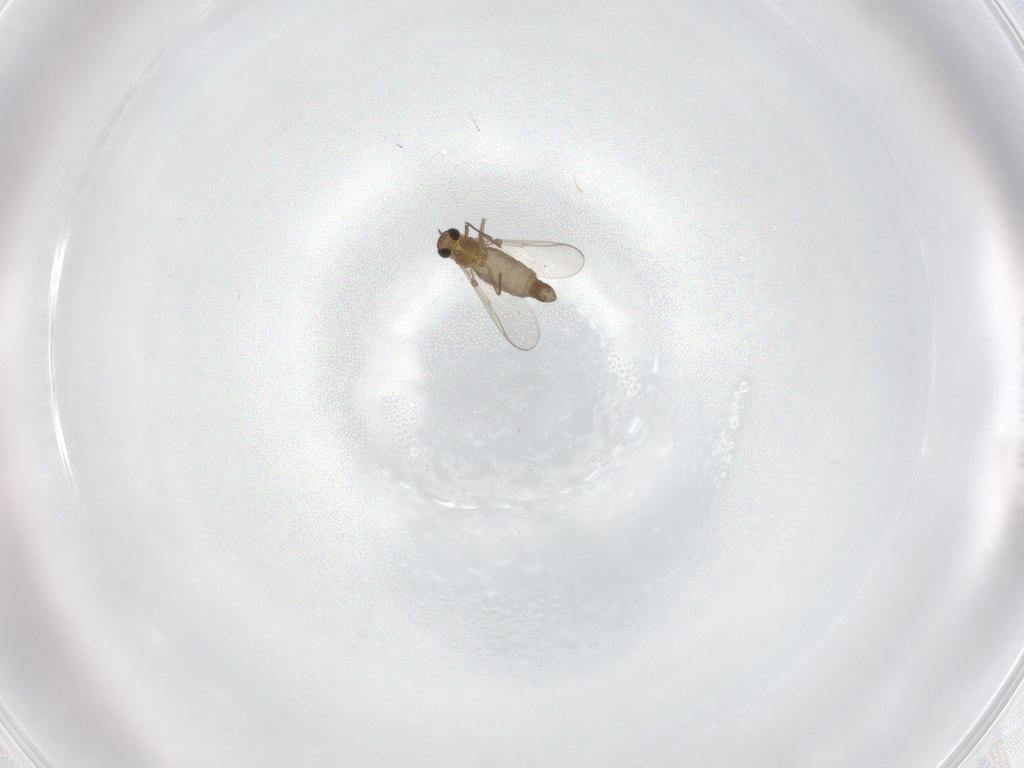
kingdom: Animalia
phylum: Arthropoda
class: Insecta
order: Diptera
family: Chironomidae
